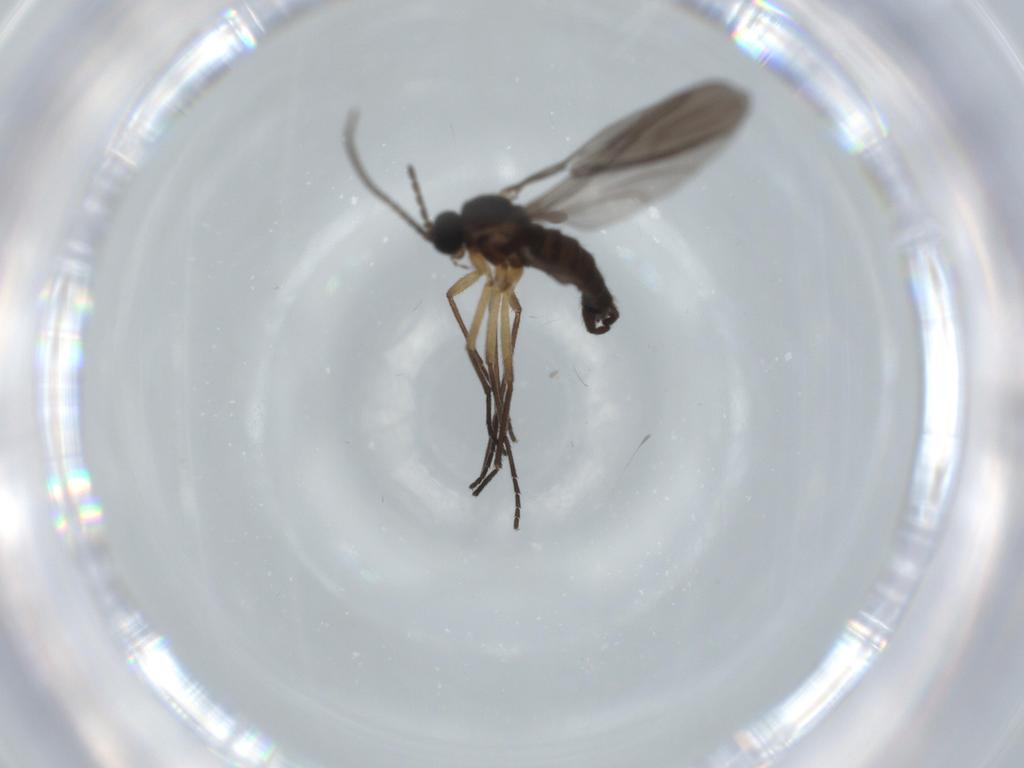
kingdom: Animalia
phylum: Arthropoda
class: Insecta
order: Diptera
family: Sciaridae
